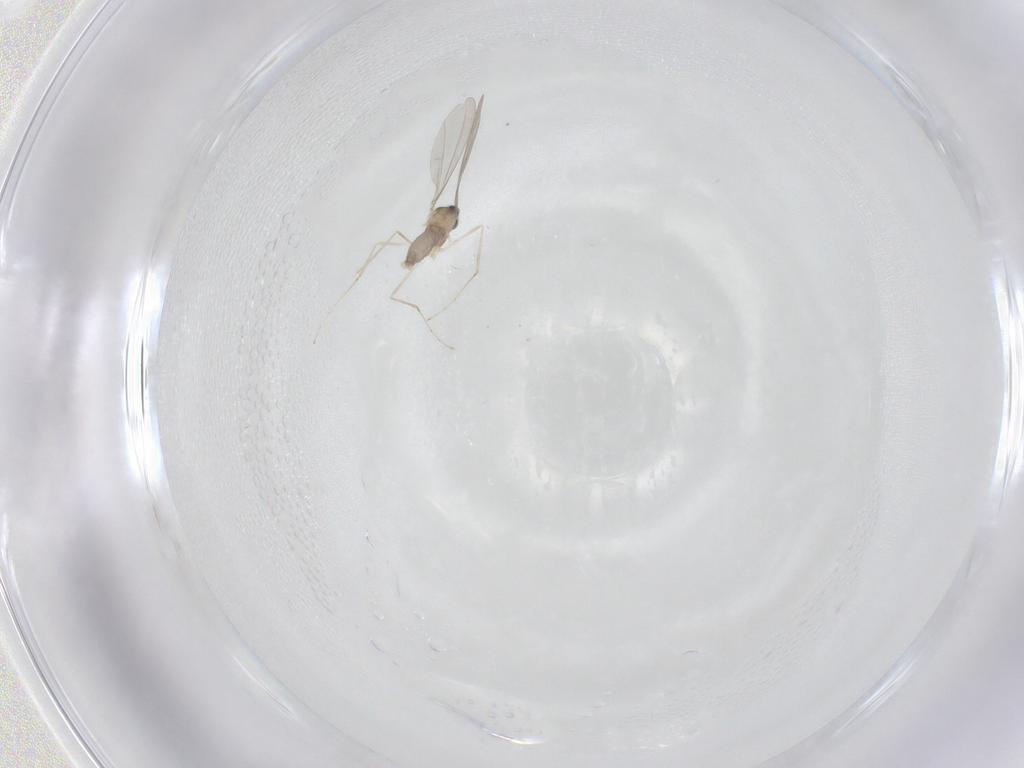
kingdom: Animalia
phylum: Arthropoda
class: Insecta
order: Diptera
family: Cecidomyiidae
